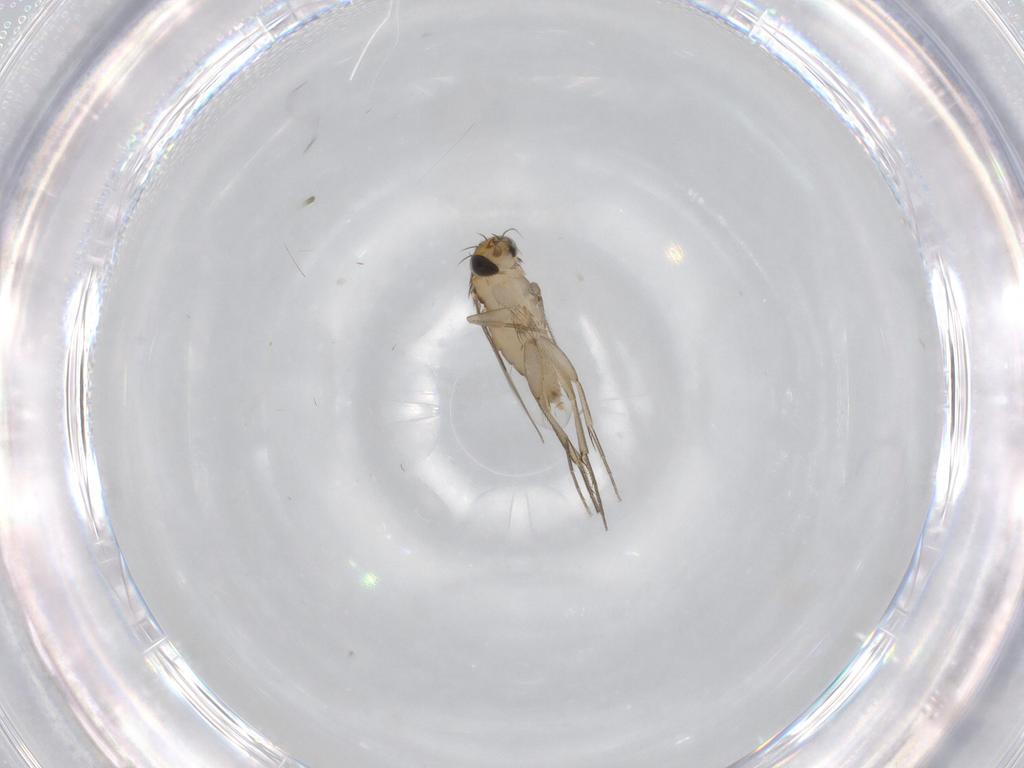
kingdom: Animalia
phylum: Arthropoda
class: Insecta
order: Diptera
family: Phoridae
